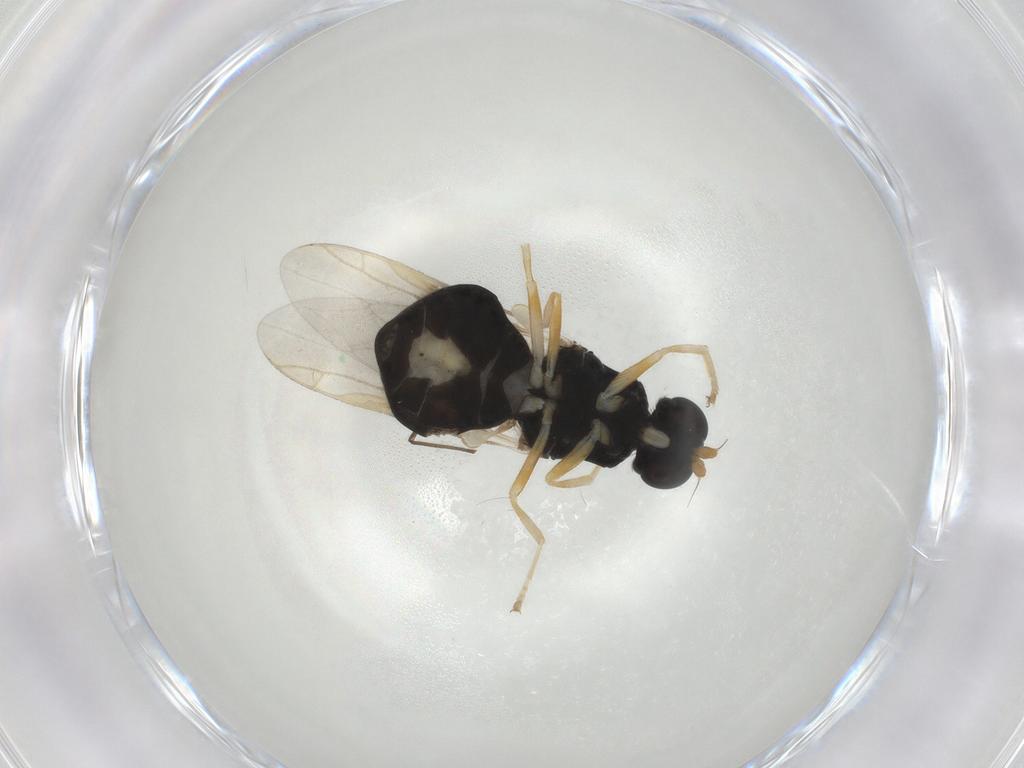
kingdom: Animalia
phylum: Arthropoda
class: Insecta
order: Diptera
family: Stratiomyidae
